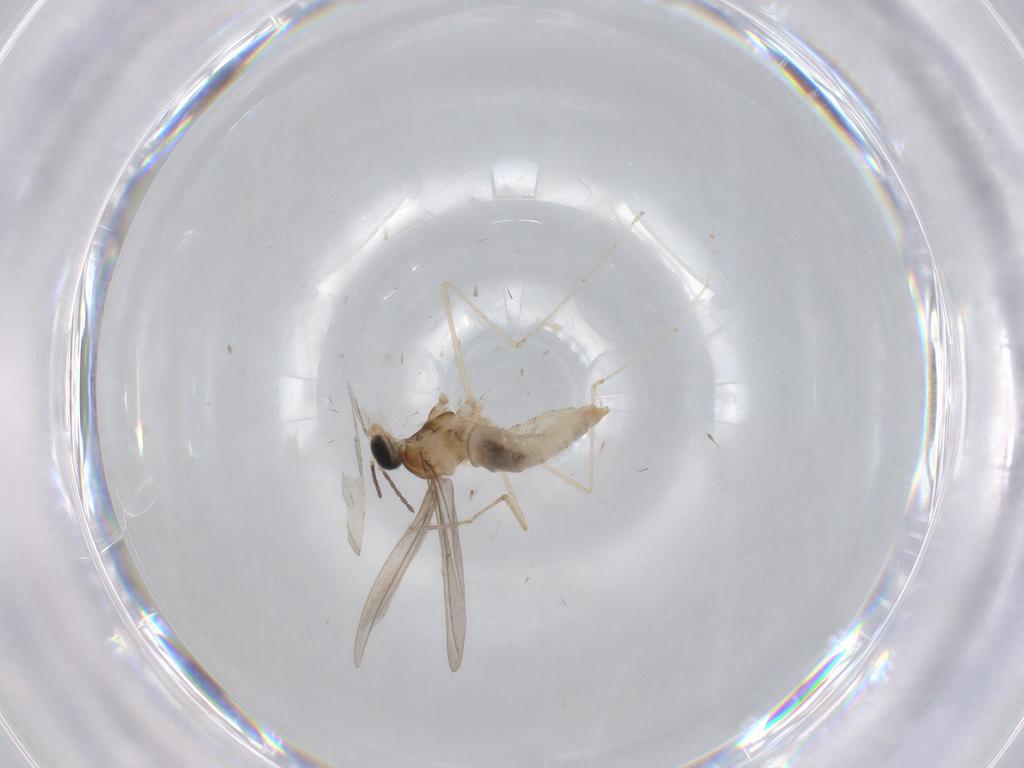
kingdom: Animalia
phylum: Arthropoda
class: Insecta
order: Diptera
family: Cecidomyiidae
